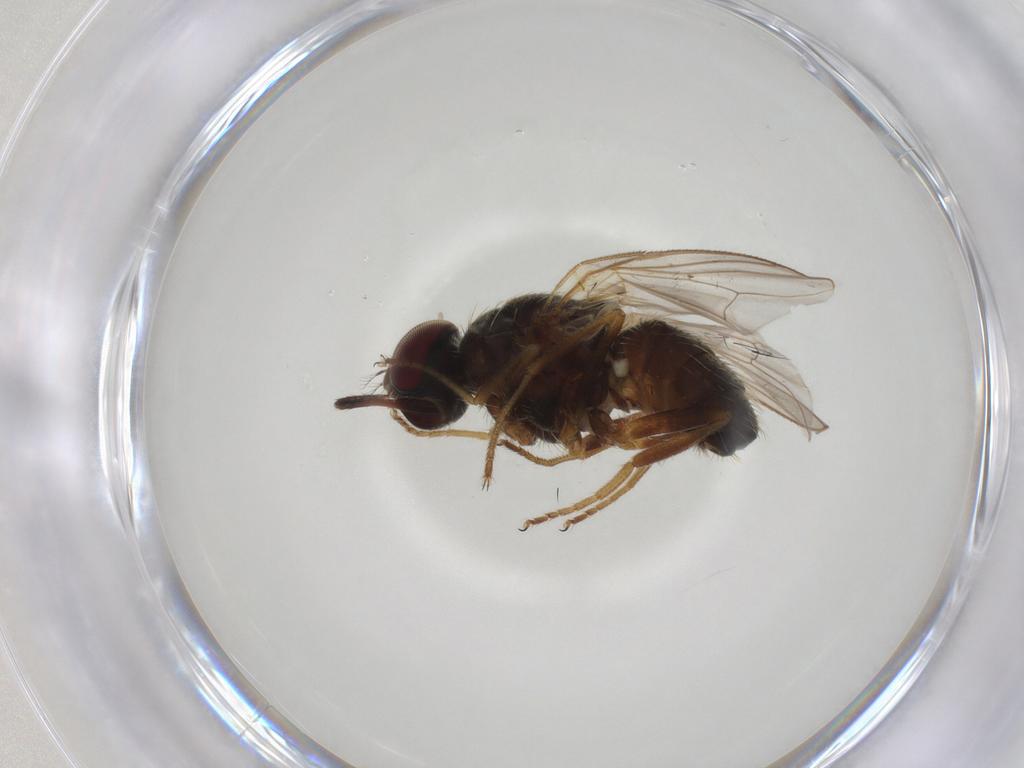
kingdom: Animalia
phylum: Arthropoda
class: Insecta
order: Diptera
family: Muscidae
